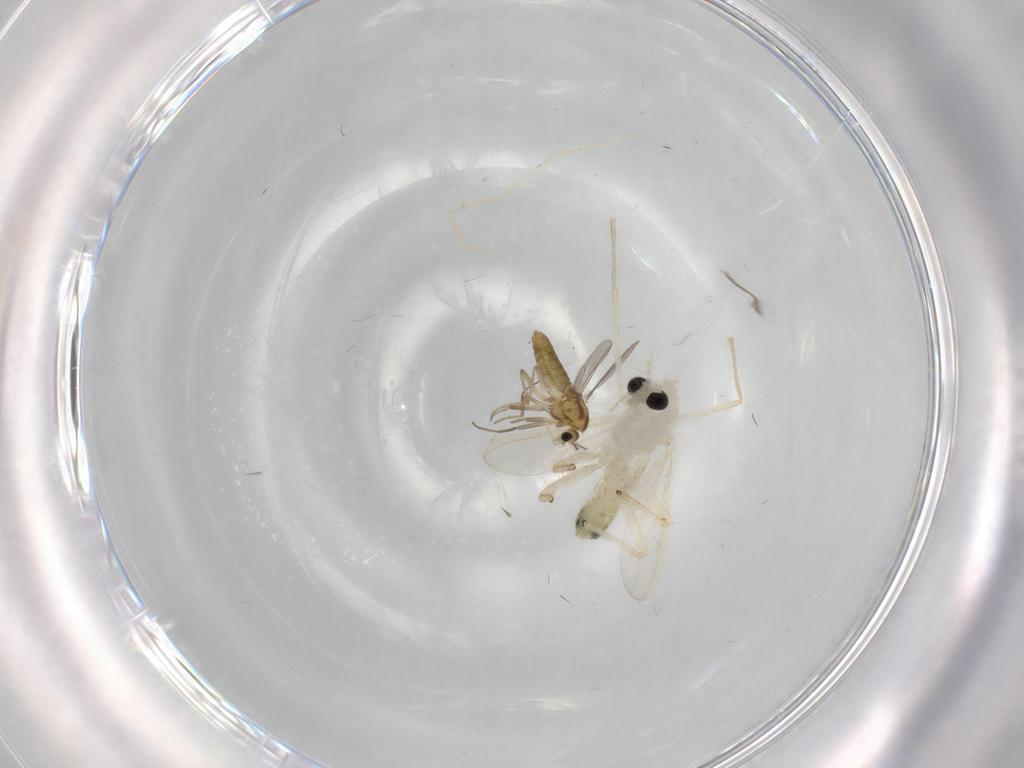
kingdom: Animalia
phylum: Arthropoda
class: Insecta
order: Diptera
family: Chironomidae
